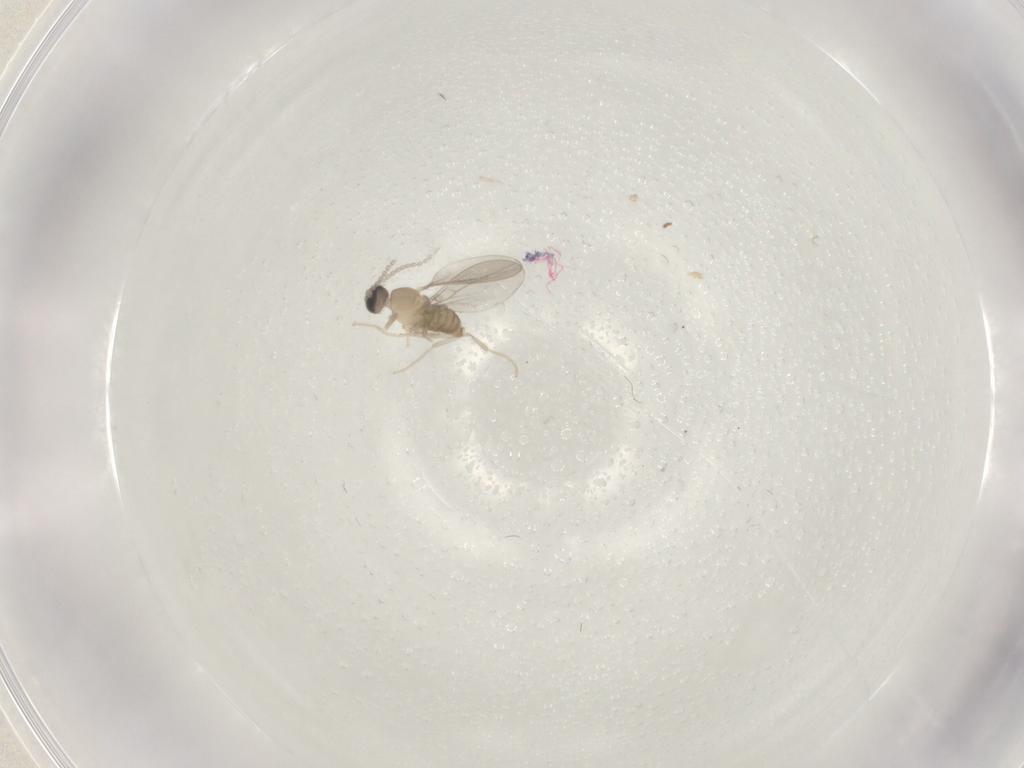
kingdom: Animalia
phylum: Arthropoda
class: Insecta
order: Diptera
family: Cecidomyiidae
